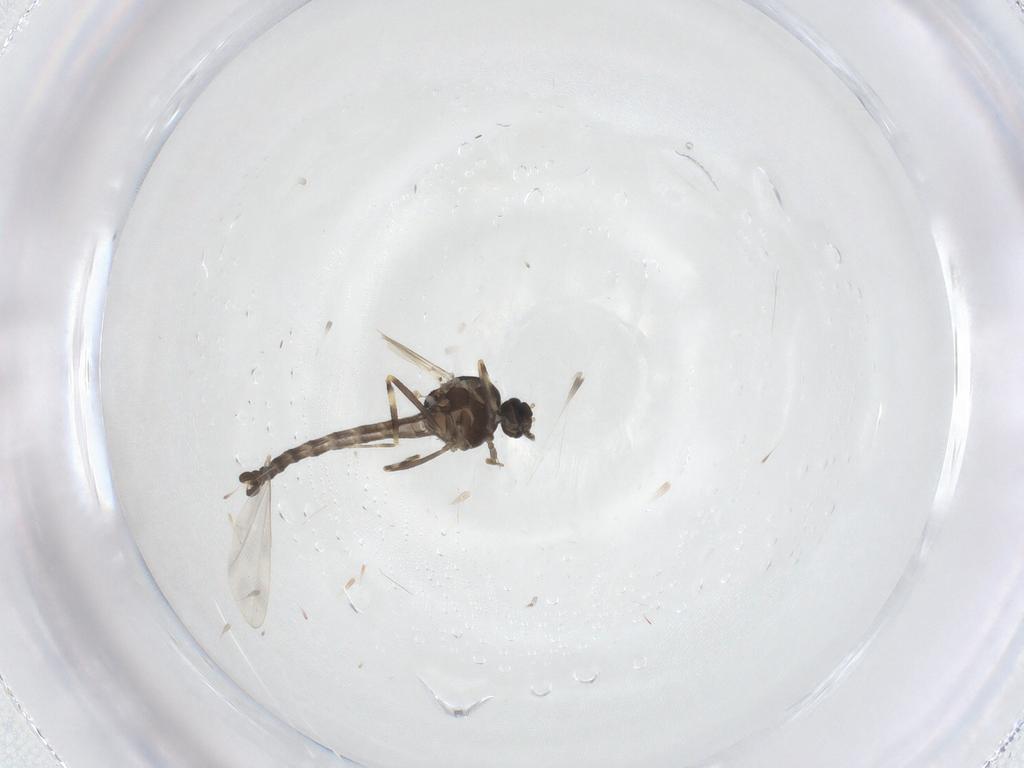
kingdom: Animalia
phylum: Arthropoda
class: Insecta
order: Diptera
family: Ceratopogonidae
